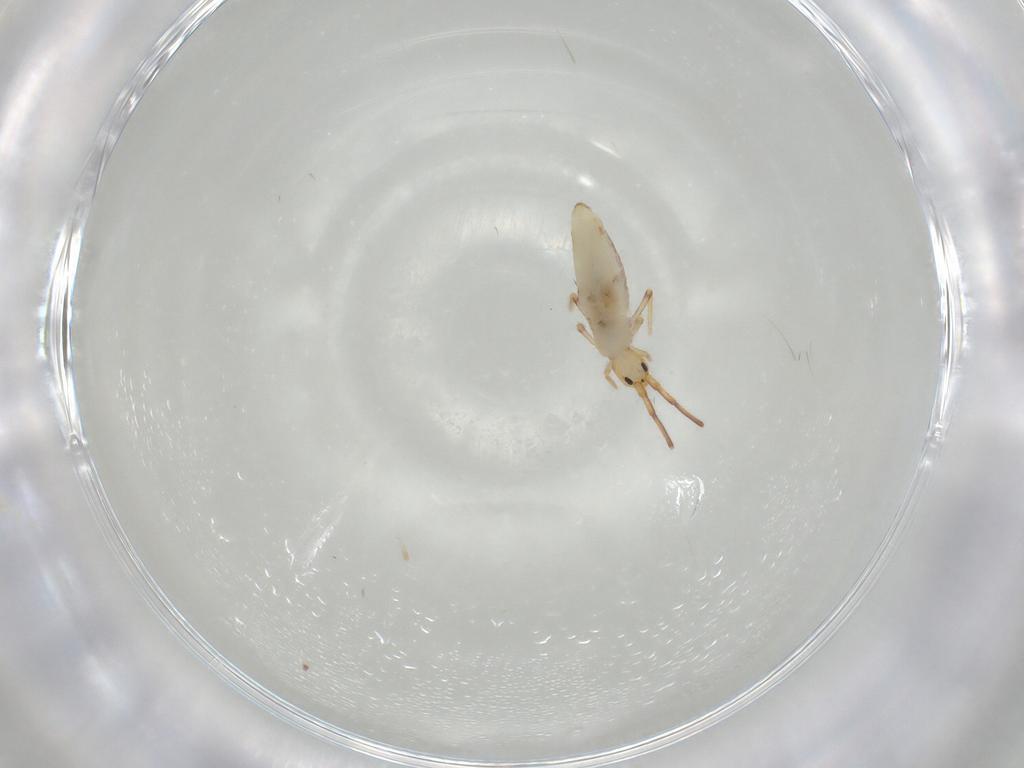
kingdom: Animalia
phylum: Arthropoda
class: Collembola
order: Poduromorpha
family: Hypogastruridae
